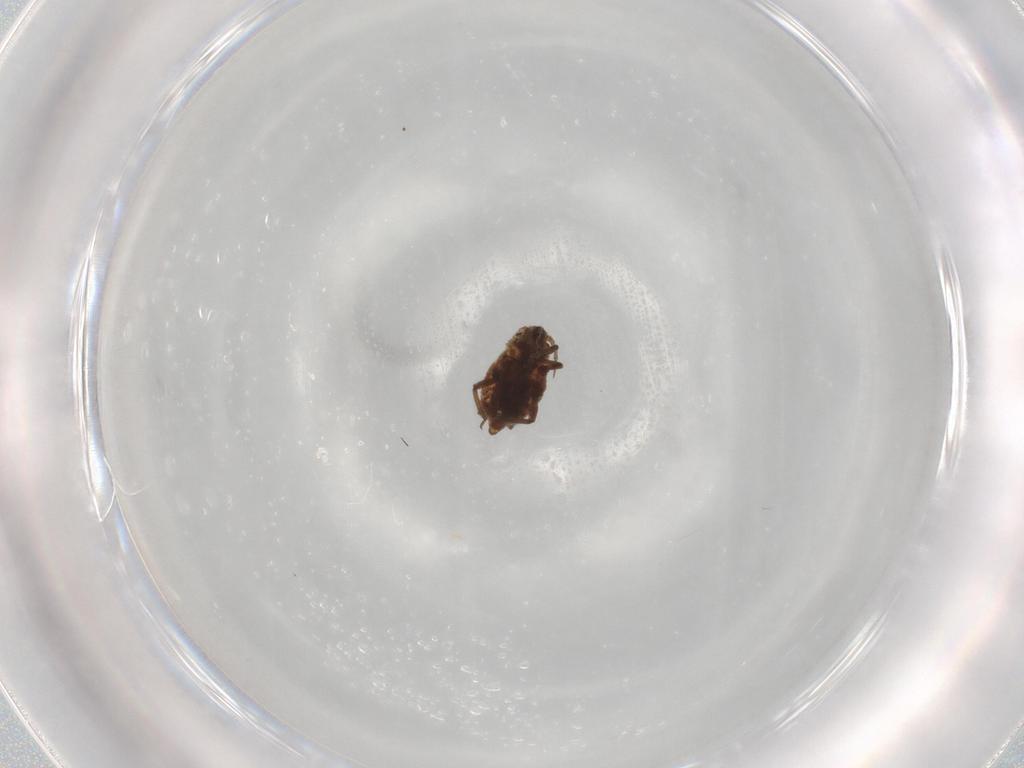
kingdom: Animalia
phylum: Arthropoda
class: Insecta
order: Hemiptera
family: Aphididae
